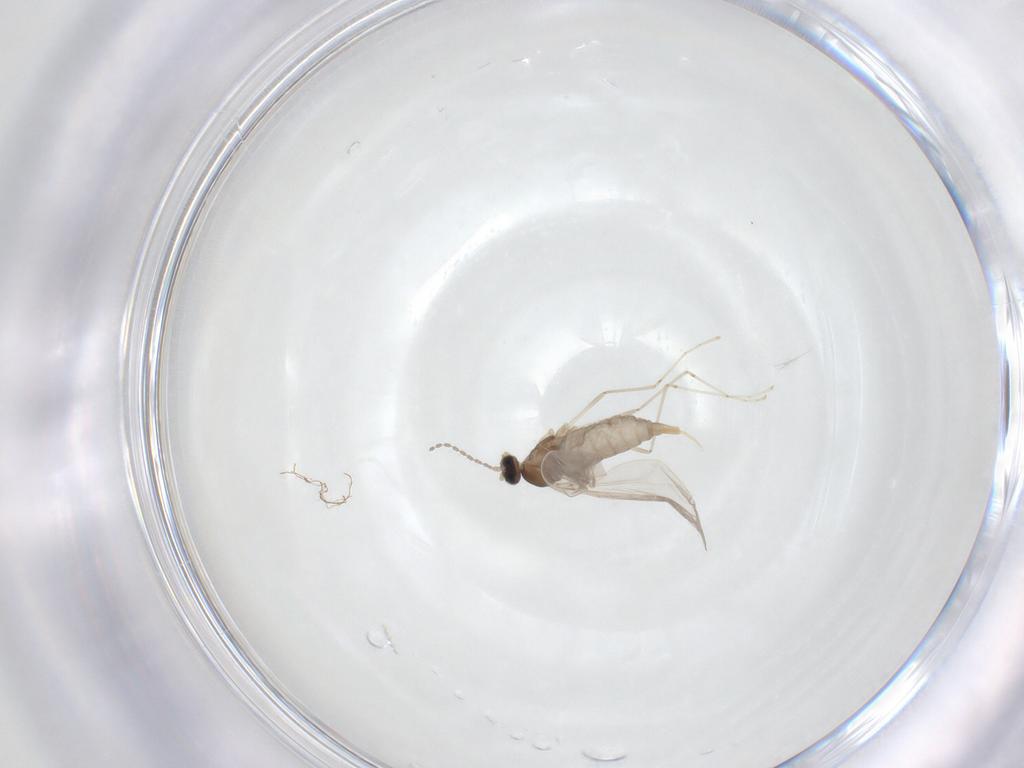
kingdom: Animalia
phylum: Arthropoda
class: Insecta
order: Diptera
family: Cecidomyiidae
